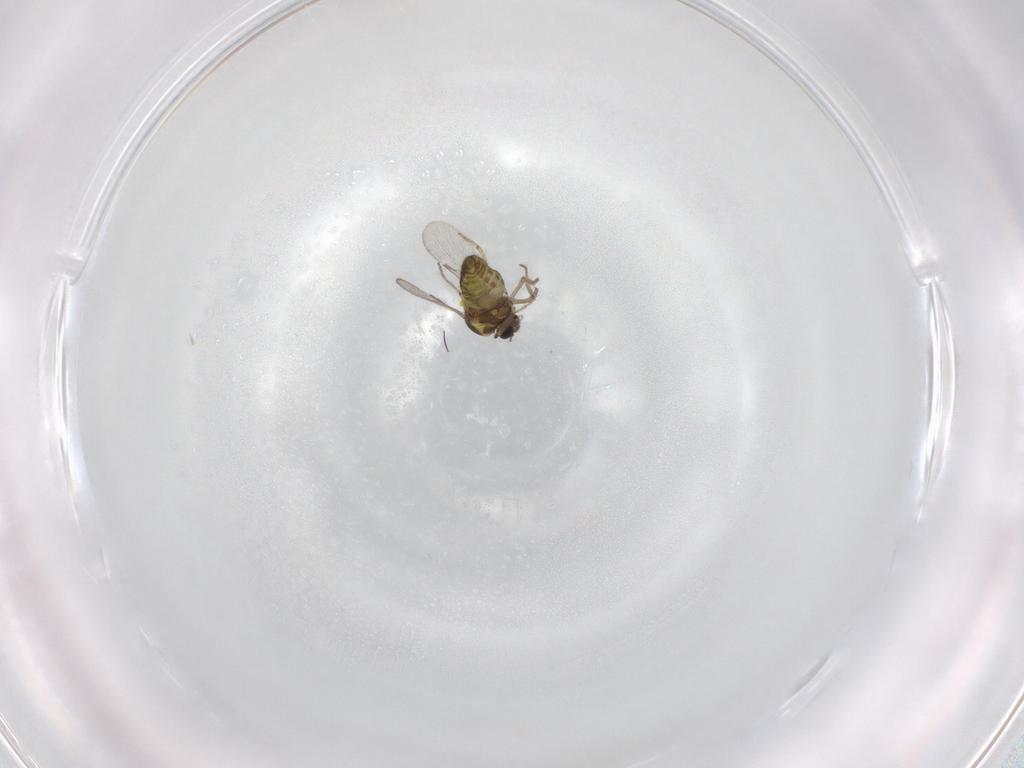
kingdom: Animalia
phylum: Arthropoda
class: Insecta
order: Diptera
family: Ceratopogonidae
